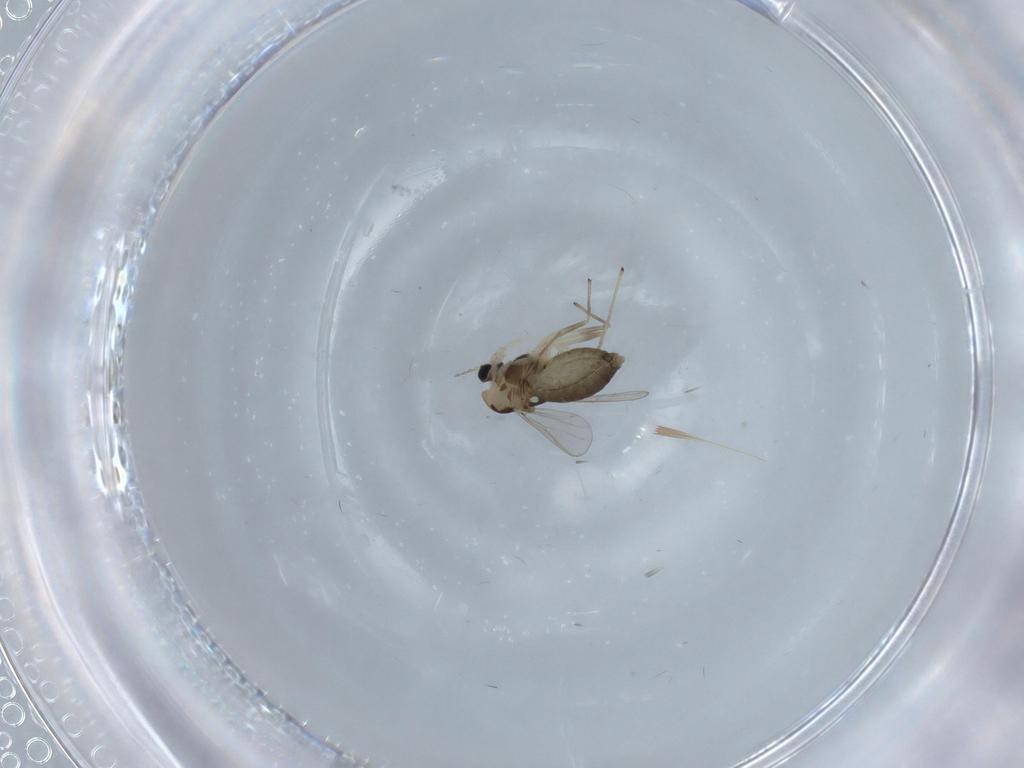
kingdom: Animalia
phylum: Arthropoda
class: Insecta
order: Diptera
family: Chironomidae
